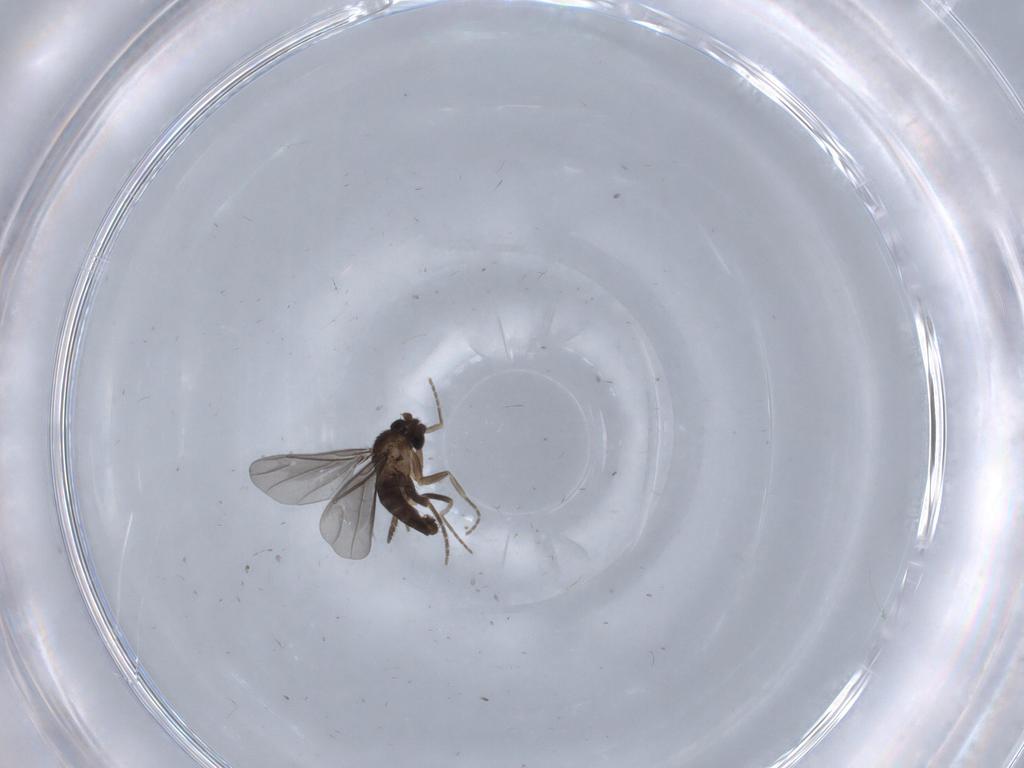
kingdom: Animalia
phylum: Arthropoda
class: Insecta
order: Diptera
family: Phoridae
